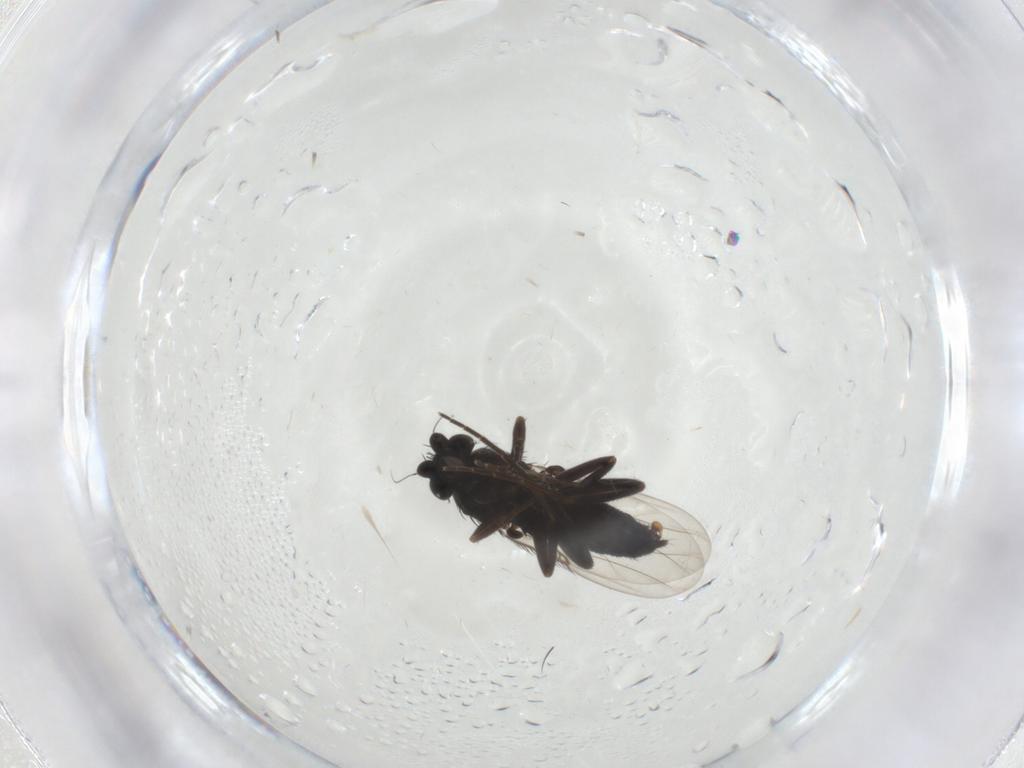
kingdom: Animalia
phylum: Arthropoda
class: Insecta
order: Diptera
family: Phoridae
